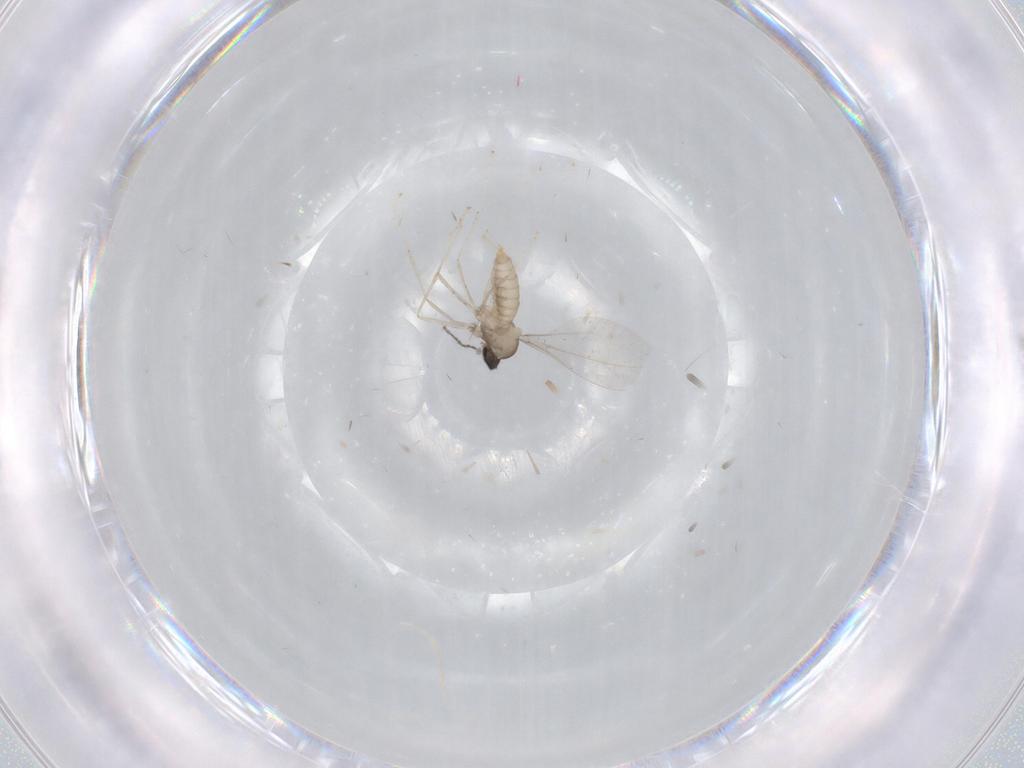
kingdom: Animalia
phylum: Arthropoda
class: Insecta
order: Diptera
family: Cecidomyiidae
